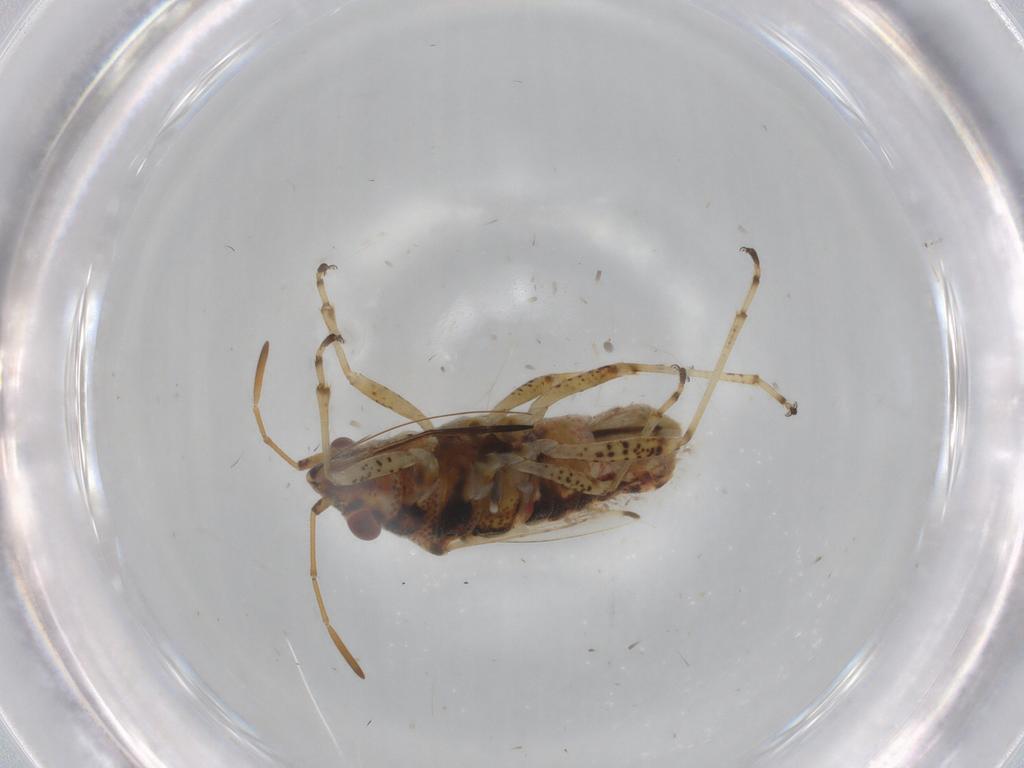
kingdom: Animalia
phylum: Arthropoda
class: Insecta
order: Hemiptera
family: Lygaeidae
